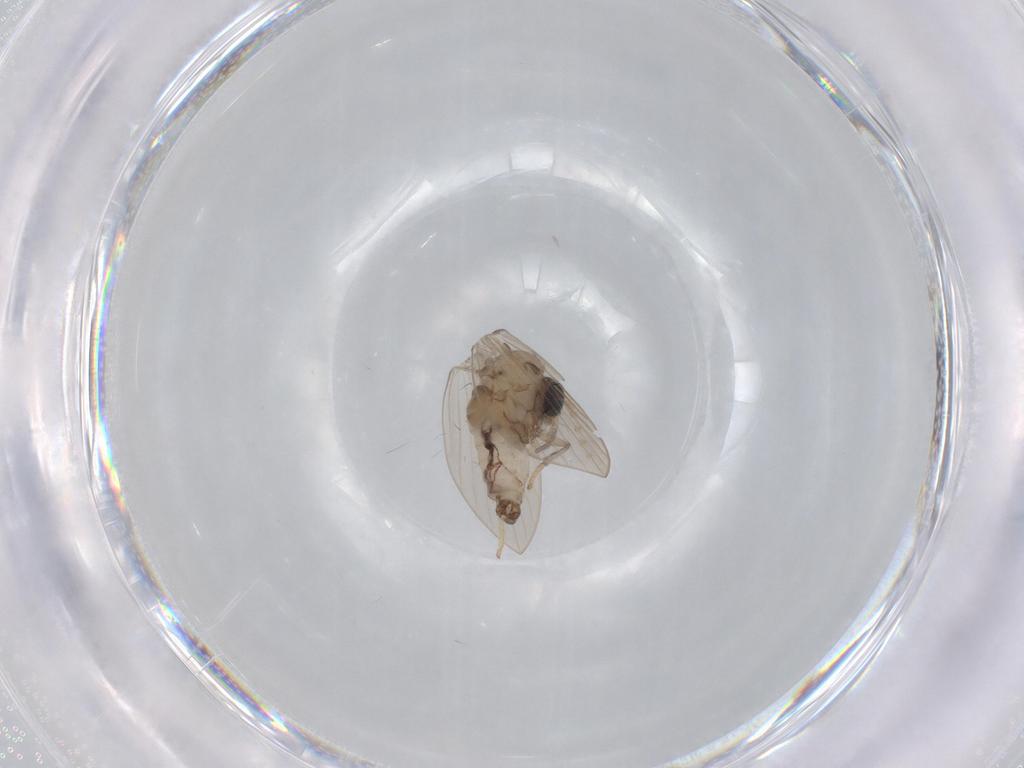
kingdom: Animalia
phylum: Arthropoda
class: Insecta
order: Diptera
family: Psychodidae
